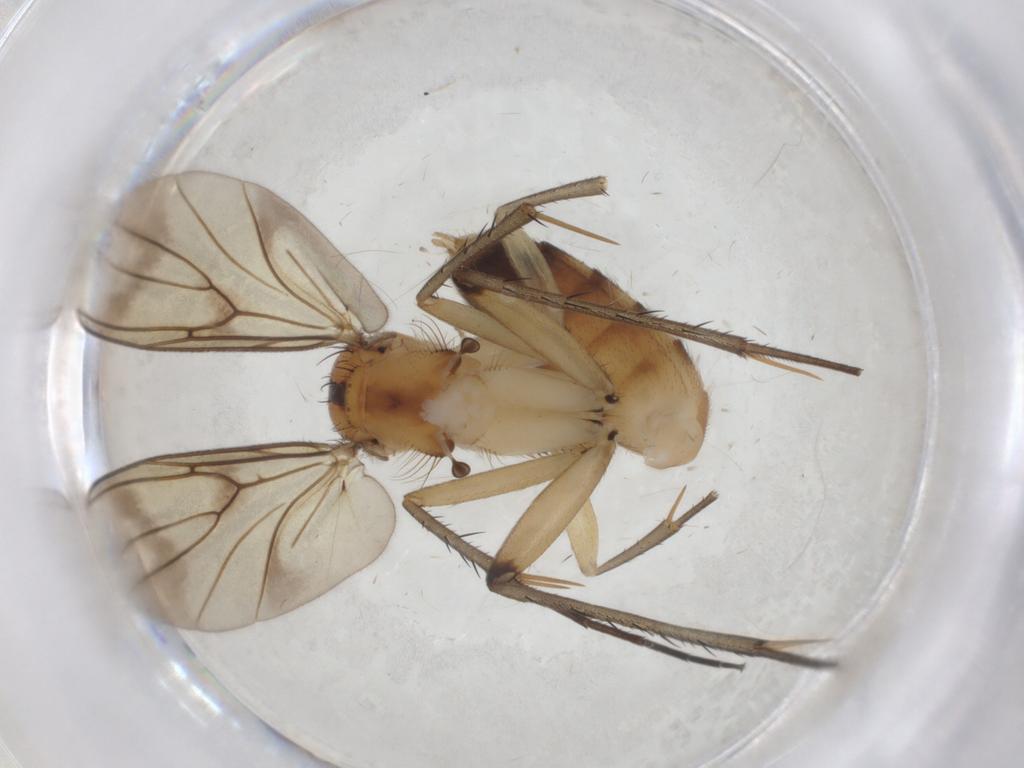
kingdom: Animalia
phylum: Arthropoda
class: Insecta
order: Diptera
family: Mycetophilidae
